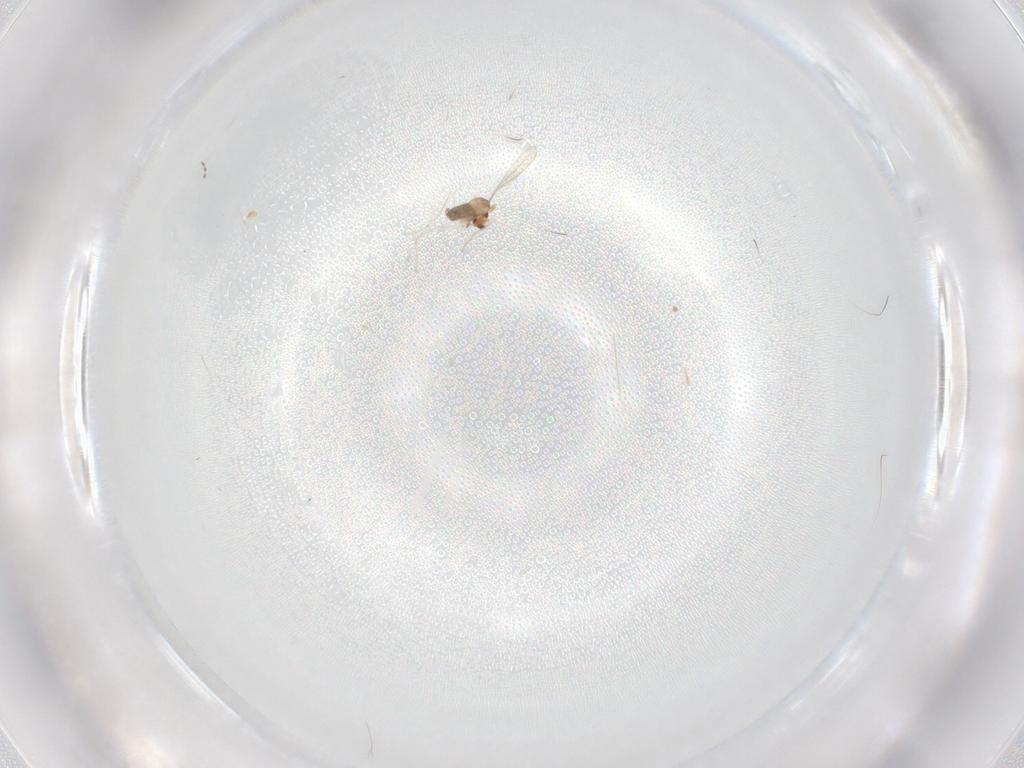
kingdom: Animalia
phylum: Arthropoda
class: Insecta
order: Diptera
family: Cecidomyiidae
